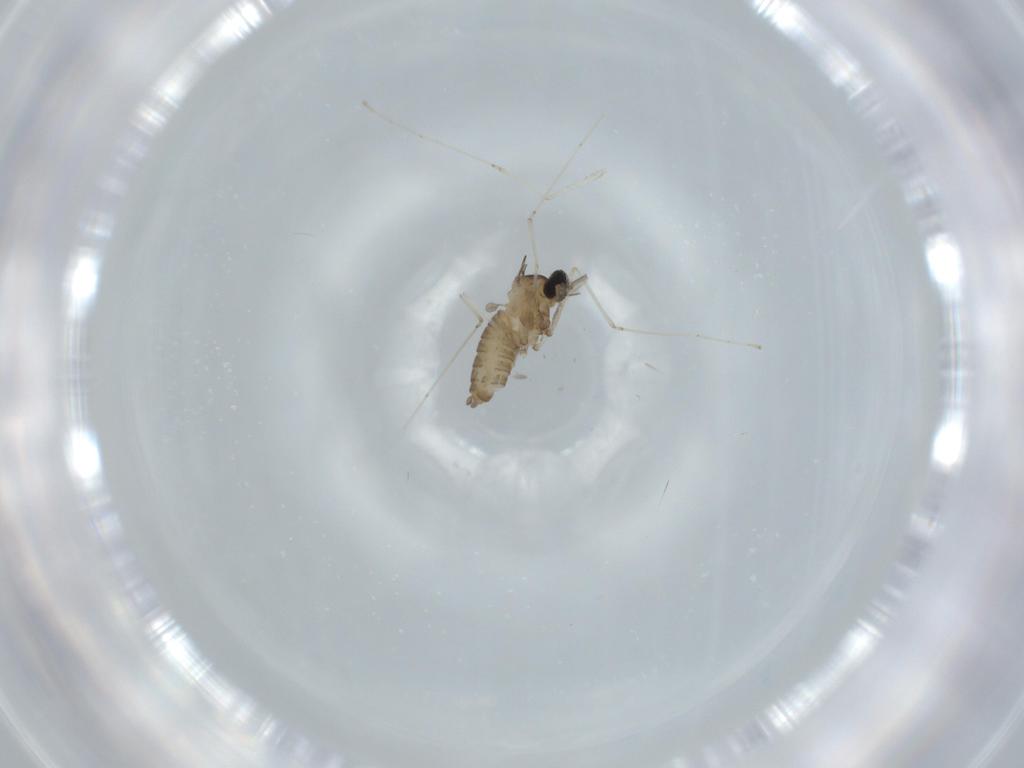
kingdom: Animalia
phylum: Arthropoda
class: Insecta
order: Diptera
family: Cecidomyiidae
